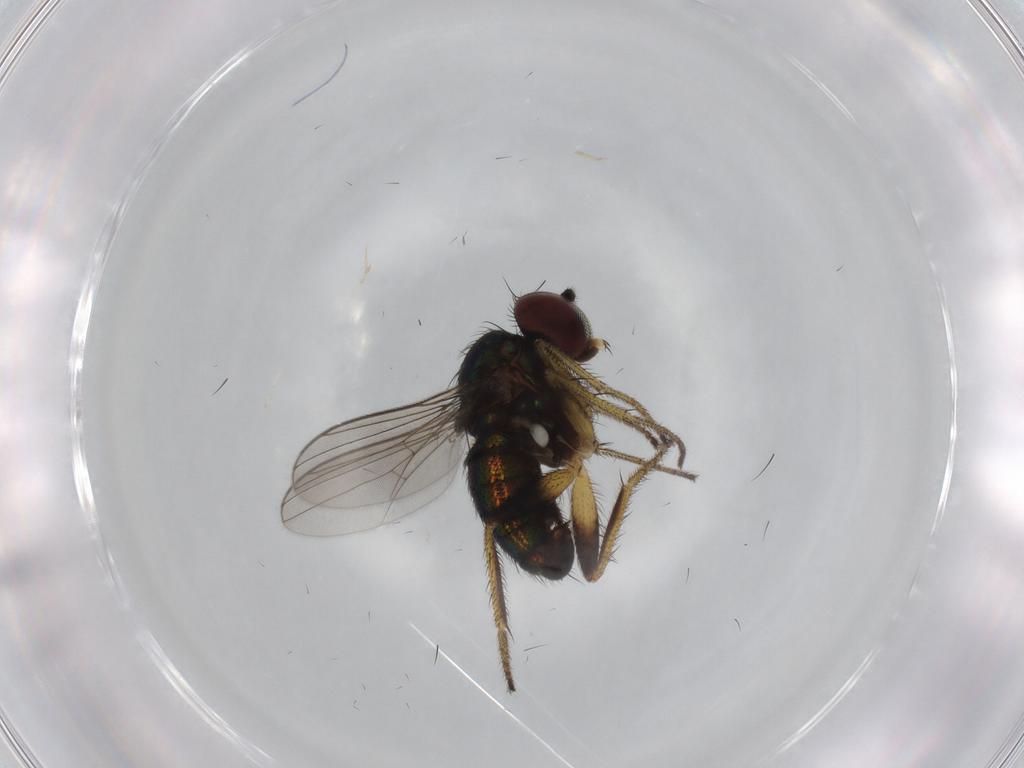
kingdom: Animalia
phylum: Arthropoda
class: Insecta
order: Diptera
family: Dolichopodidae
